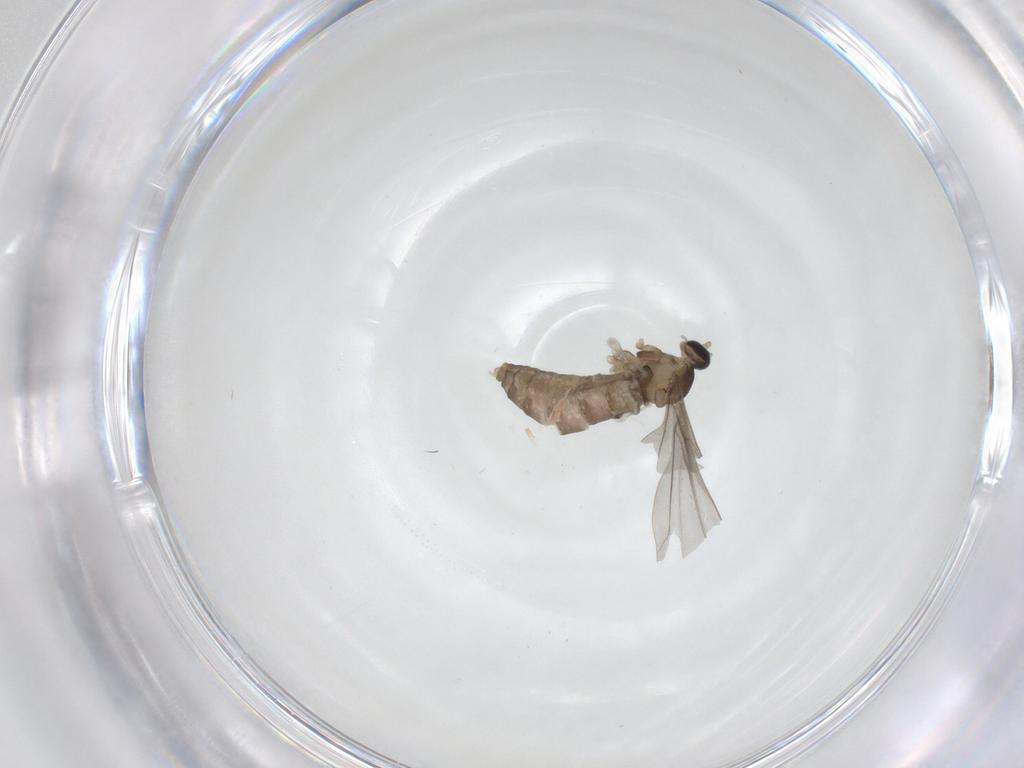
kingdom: Animalia
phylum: Arthropoda
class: Insecta
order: Diptera
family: Cecidomyiidae
